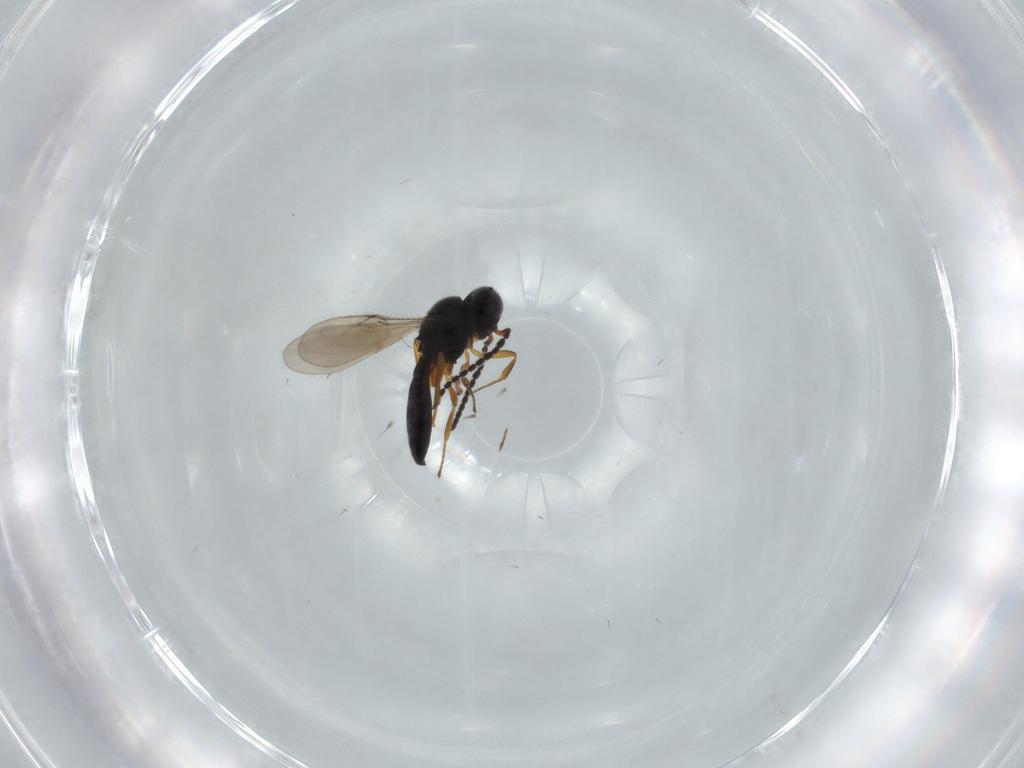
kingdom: Animalia
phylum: Arthropoda
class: Insecta
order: Hymenoptera
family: Scelionidae
